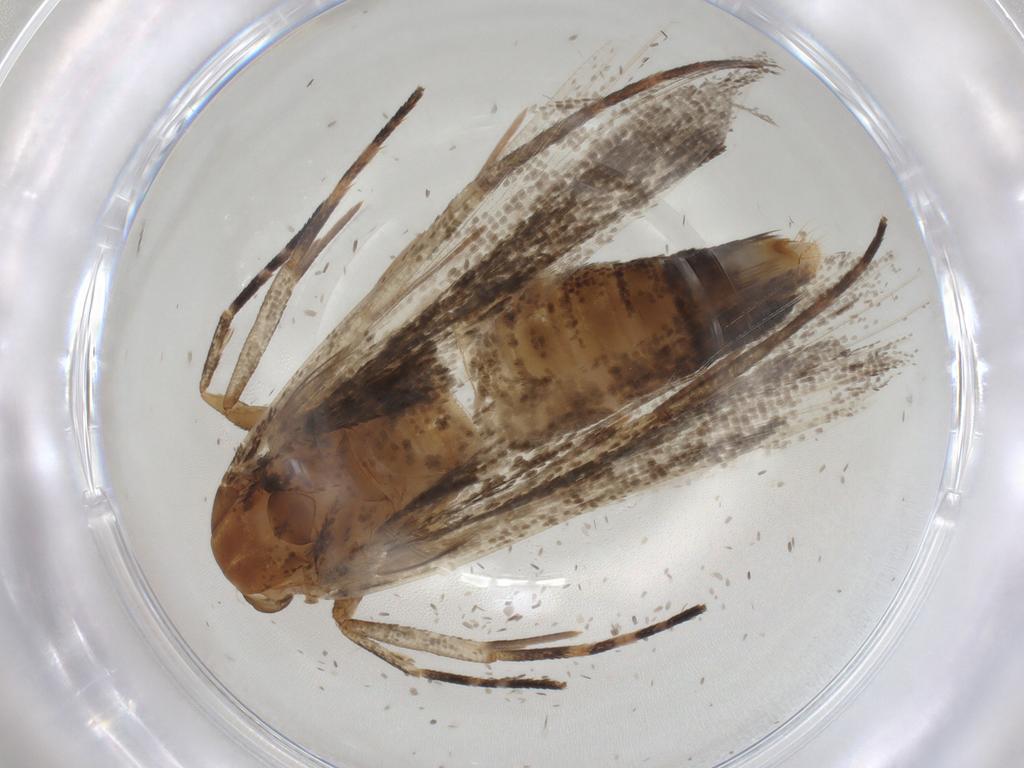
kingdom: Animalia
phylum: Arthropoda
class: Insecta
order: Lepidoptera
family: Gelechiidae
